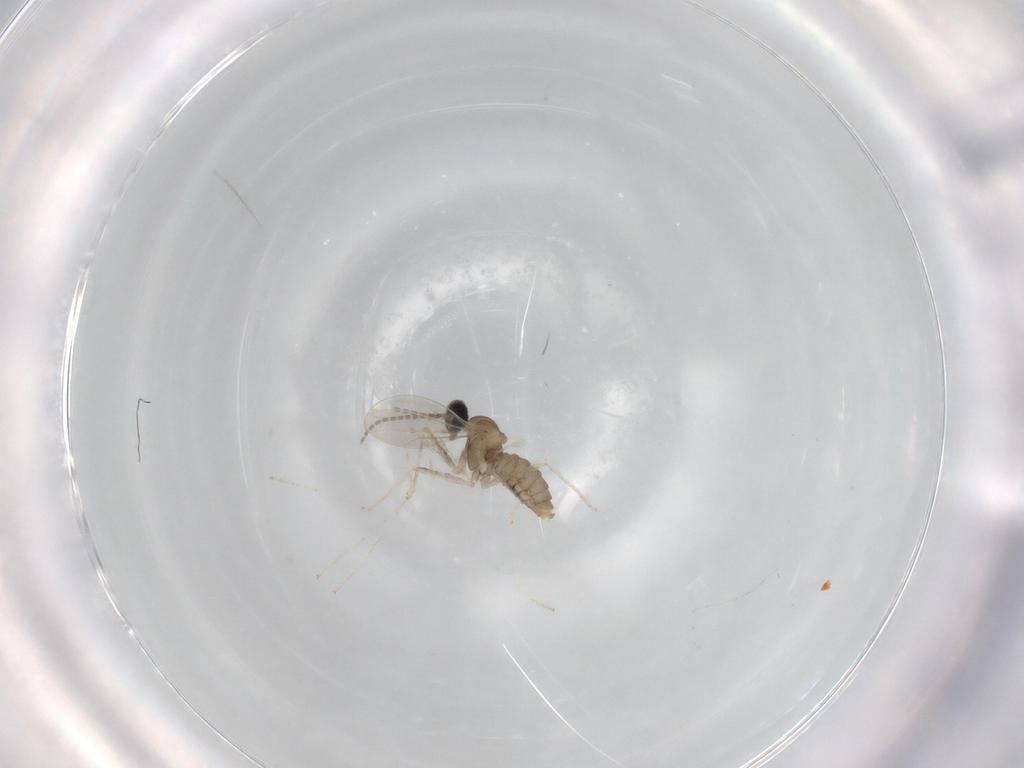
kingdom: Animalia
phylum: Arthropoda
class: Insecta
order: Diptera
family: Cecidomyiidae
